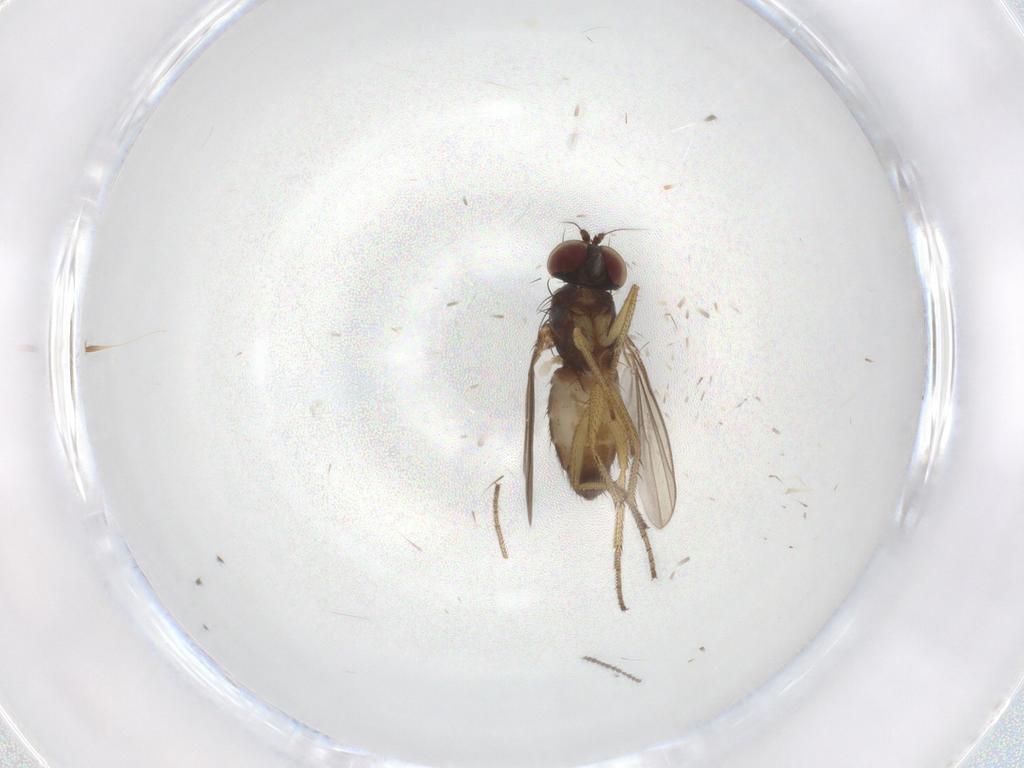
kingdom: Animalia
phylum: Arthropoda
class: Insecta
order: Diptera
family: Dolichopodidae
